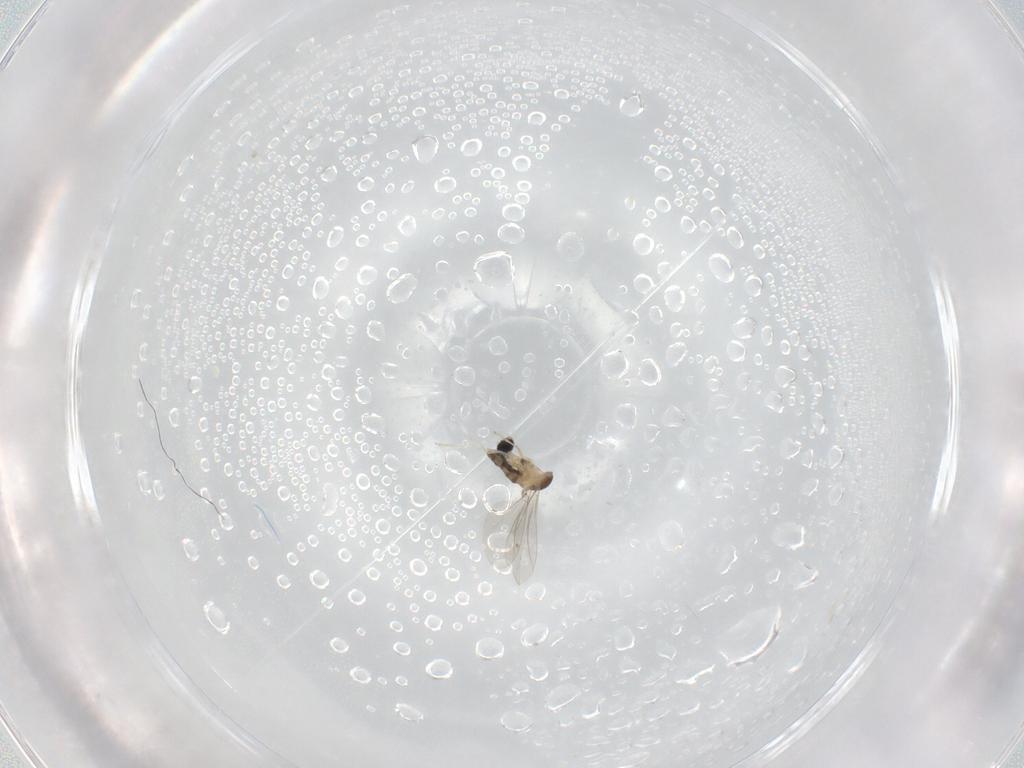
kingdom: Animalia
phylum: Arthropoda
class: Insecta
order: Diptera
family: Cecidomyiidae
